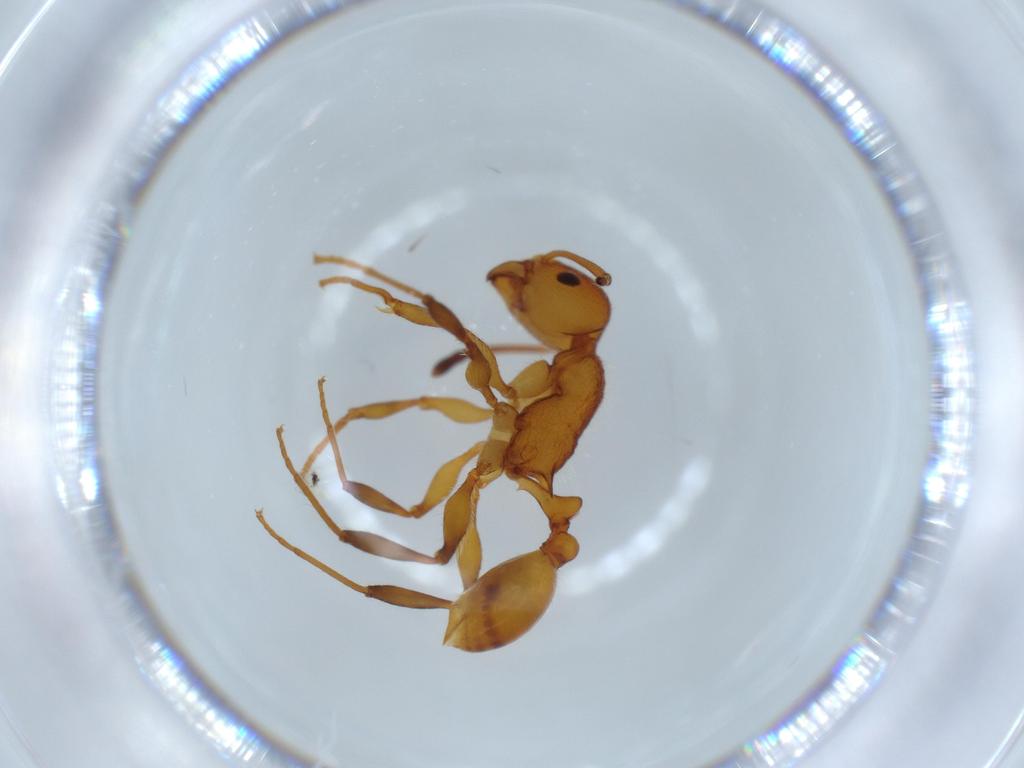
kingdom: Animalia
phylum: Arthropoda
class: Insecta
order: Hymenoptera
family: Formicidae
